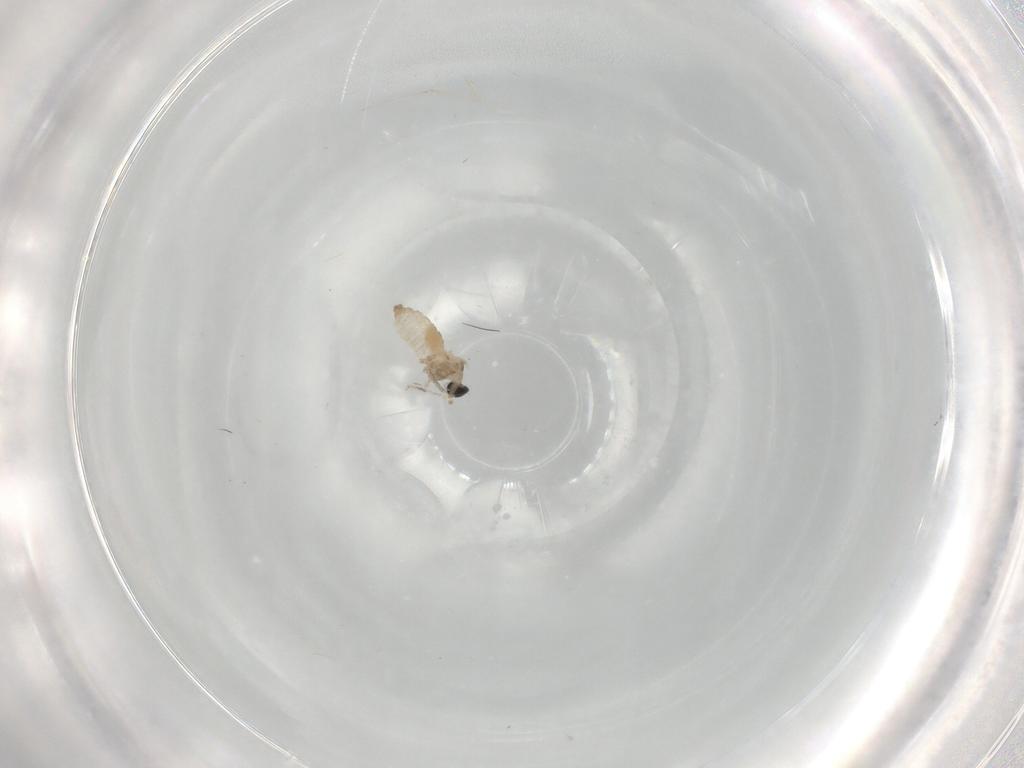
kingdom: Animalia
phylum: Arthropoda
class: Insecta
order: Diptera
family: Cecidomyiidae
